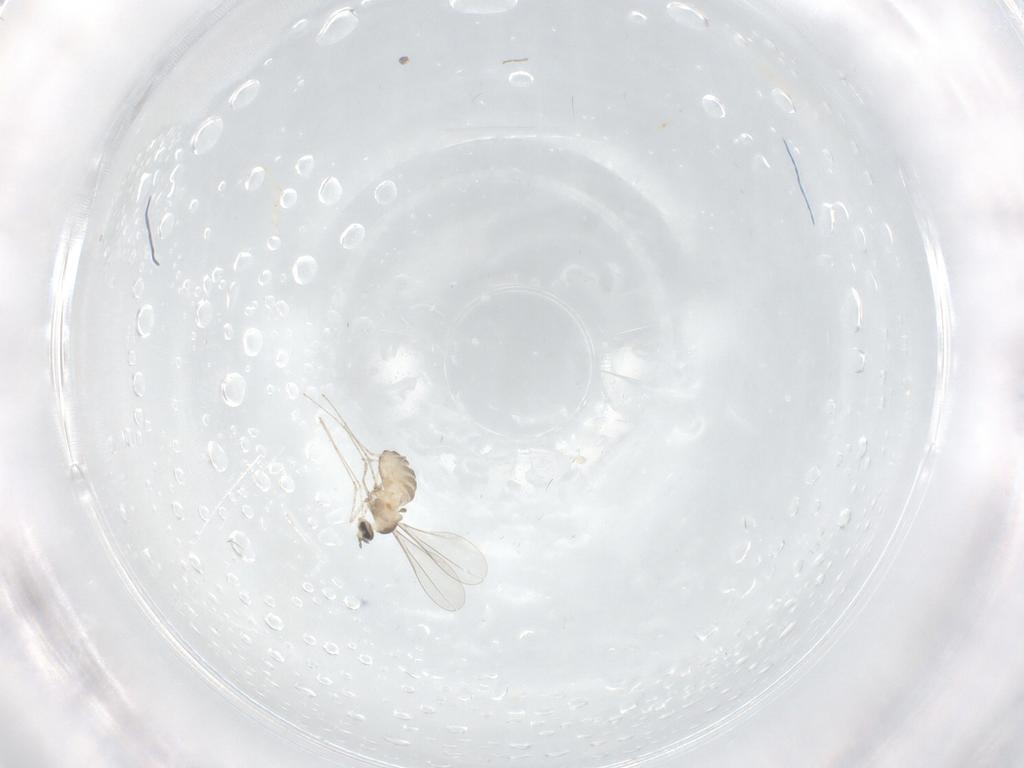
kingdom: Animalia
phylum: Arthropoda
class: Insecta
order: Diptera
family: Cecidomyiidae
